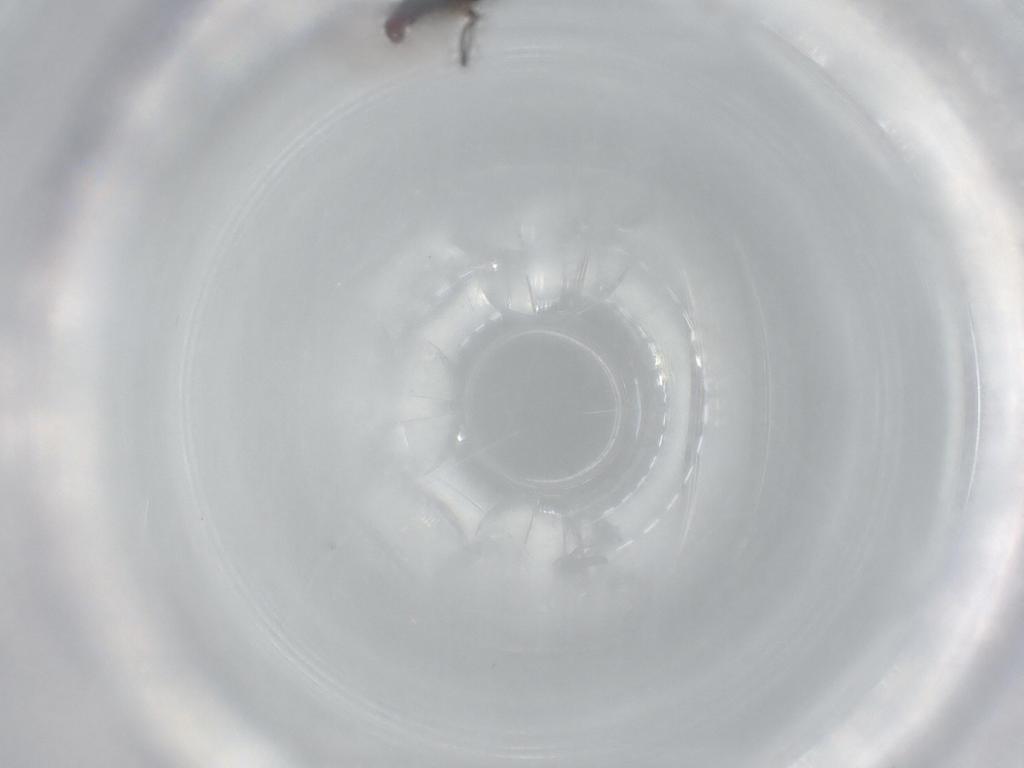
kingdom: Animalia
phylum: Arthropoda
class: Insecta
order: Diptera
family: Sciaridae
